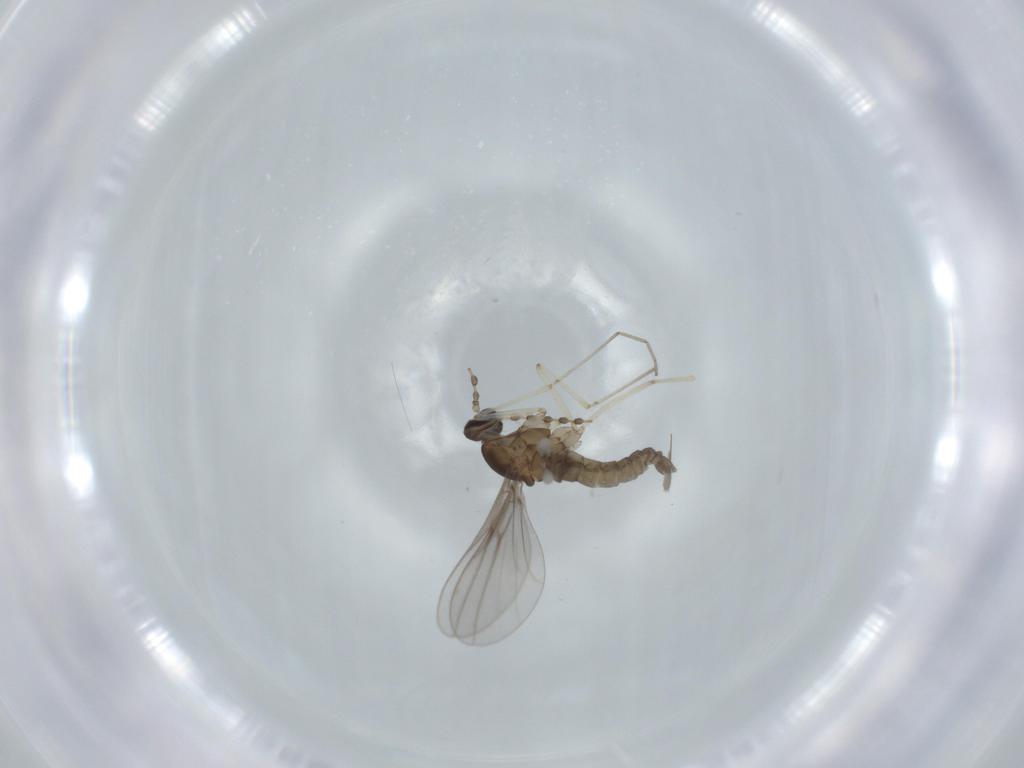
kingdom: Animalia
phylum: Arthropoda
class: Insecta
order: Diptera
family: Cecidomyiidae
